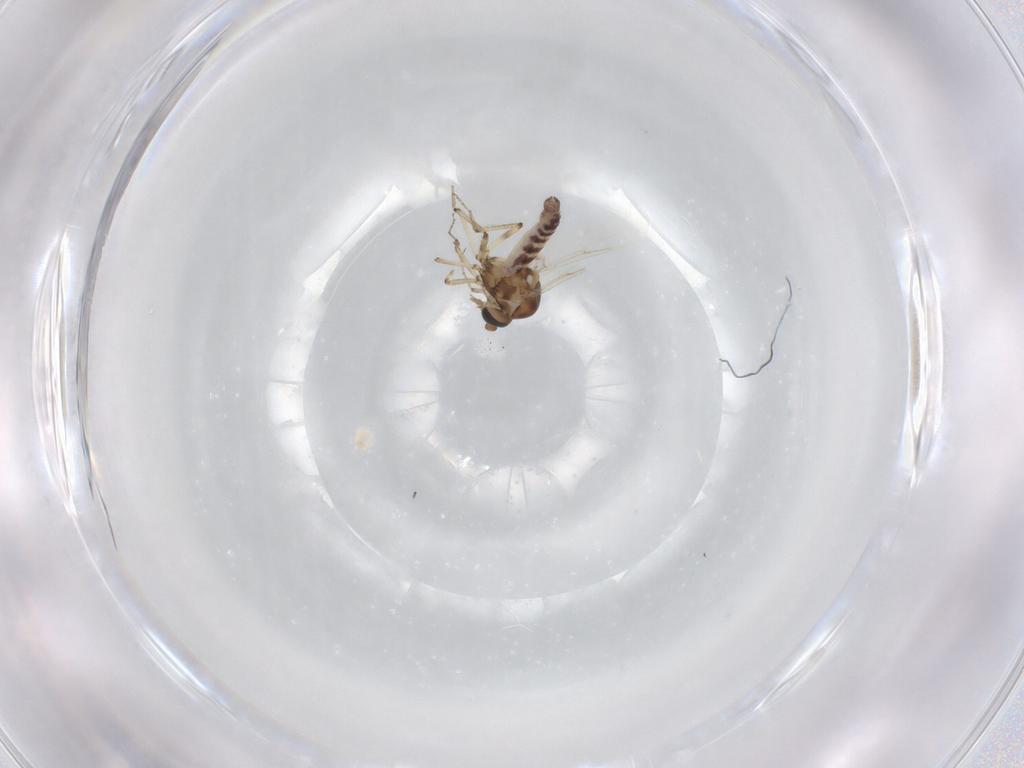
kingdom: Animalia
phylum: Arthropoda
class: Insecta
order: Diptera
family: Ceratopogonidae
